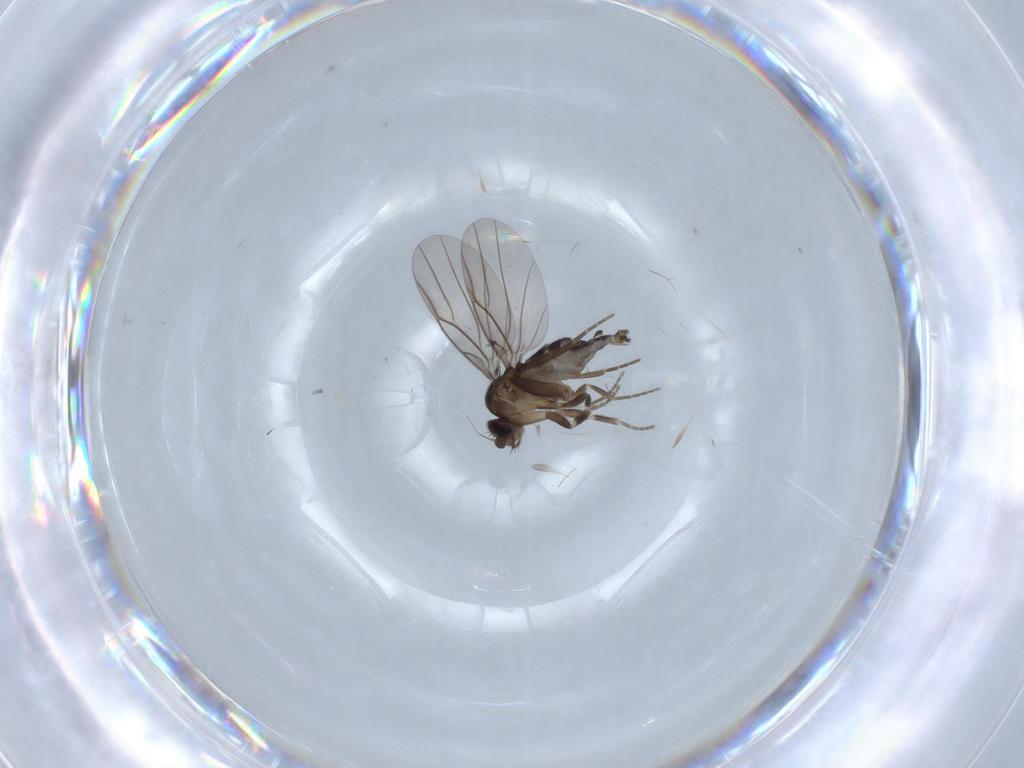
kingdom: Animalia
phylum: Arthropoda
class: Insecta
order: Diptera
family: Phoridae
